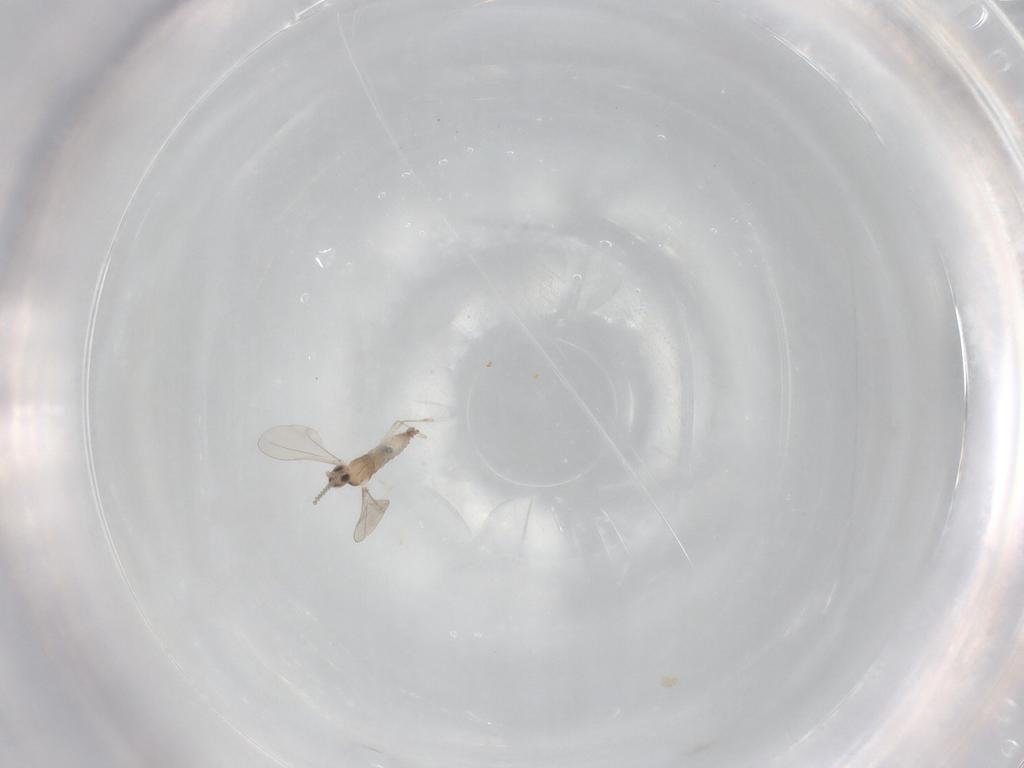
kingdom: Animalia
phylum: Arthropoda
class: Insecta
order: Diptera
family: Cecidomyiidae
